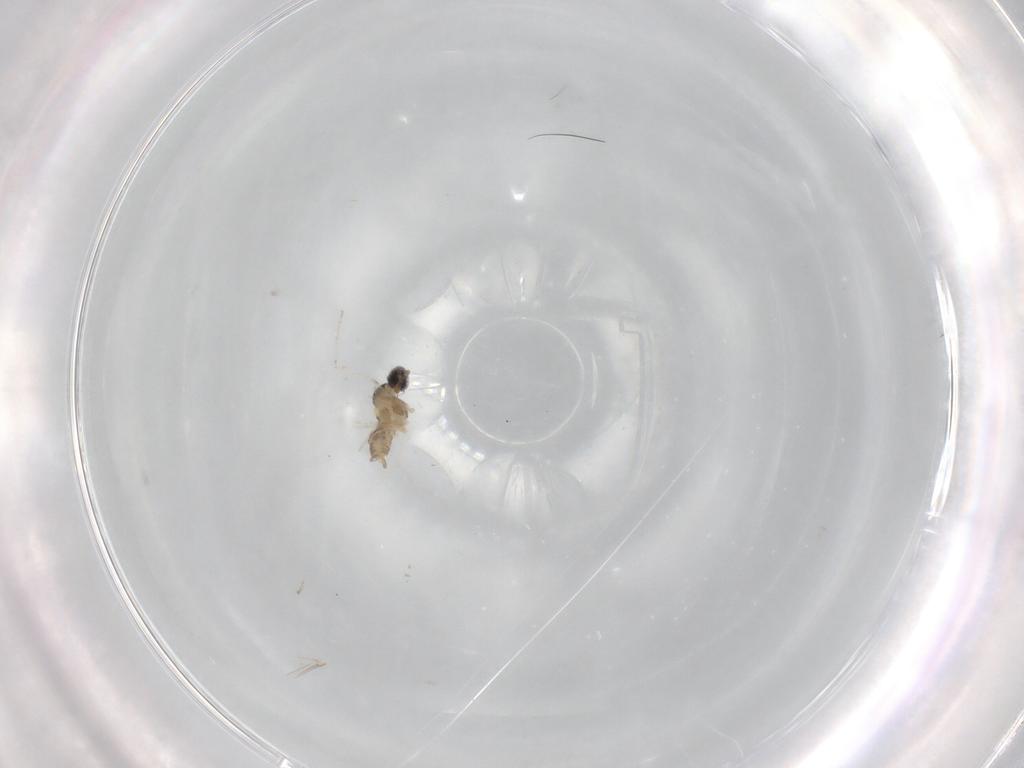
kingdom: Animalia
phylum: Arthropoda
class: Insecta
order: Diptera
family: Cecidomyiidae
